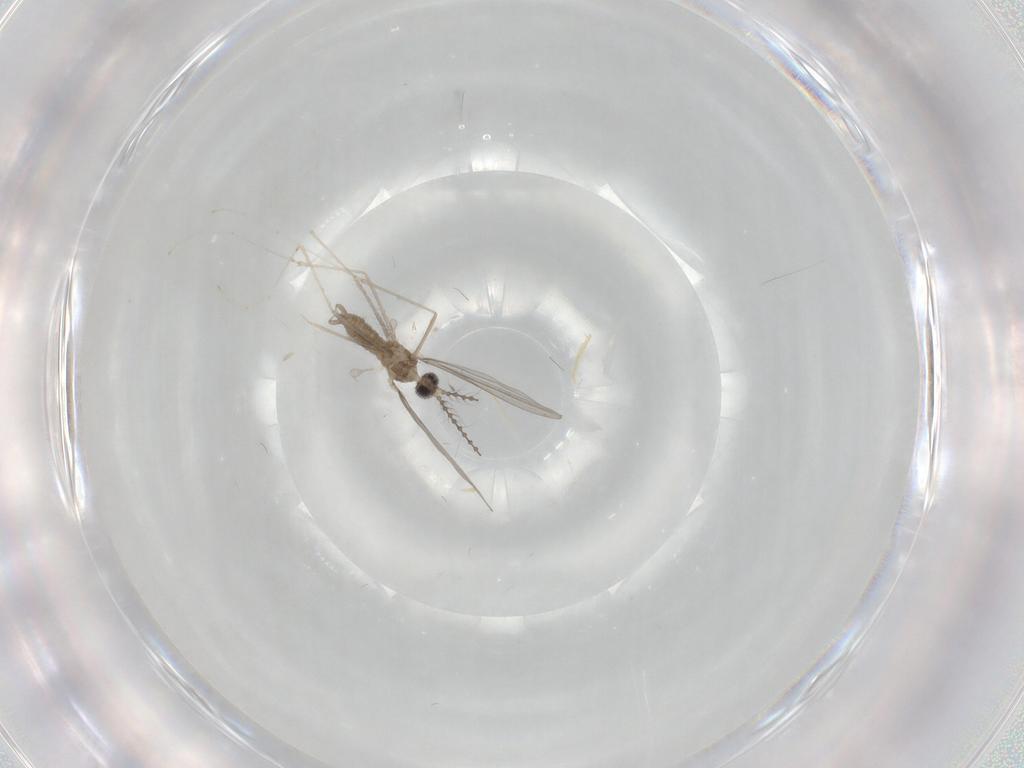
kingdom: Animalia
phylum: Arthropoda
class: Insecta
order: Diptera
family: Cecidomyiidae
